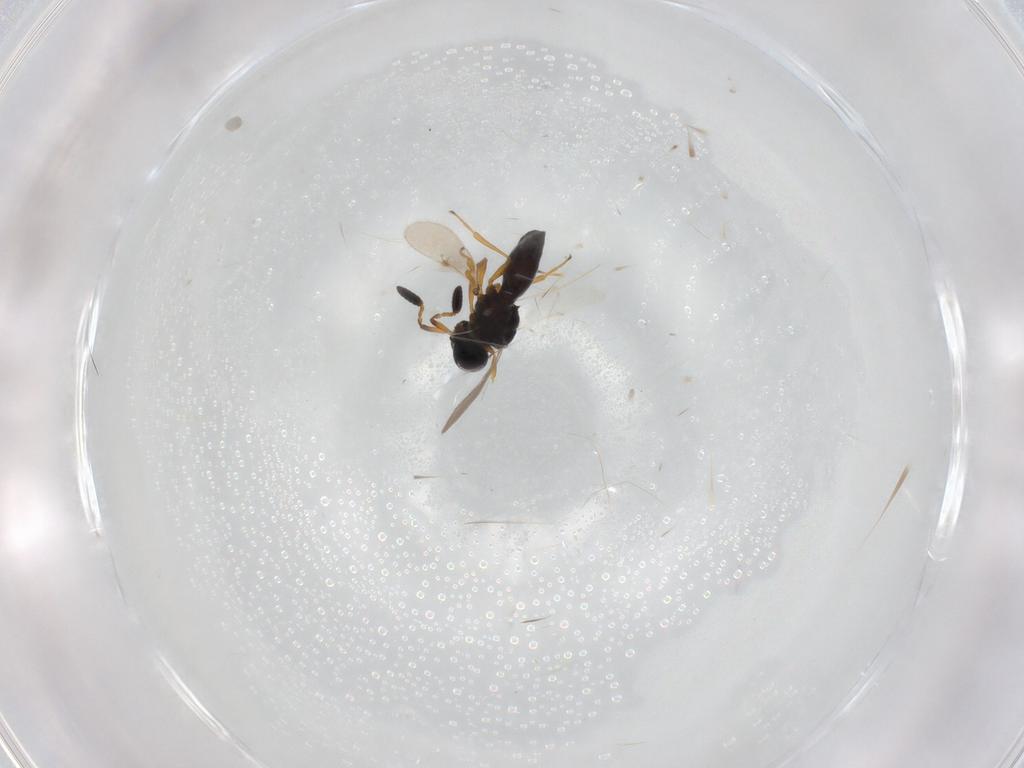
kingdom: Animalia
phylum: Arthropoda
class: Insecta
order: Hymenoptera
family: Scelionidae
